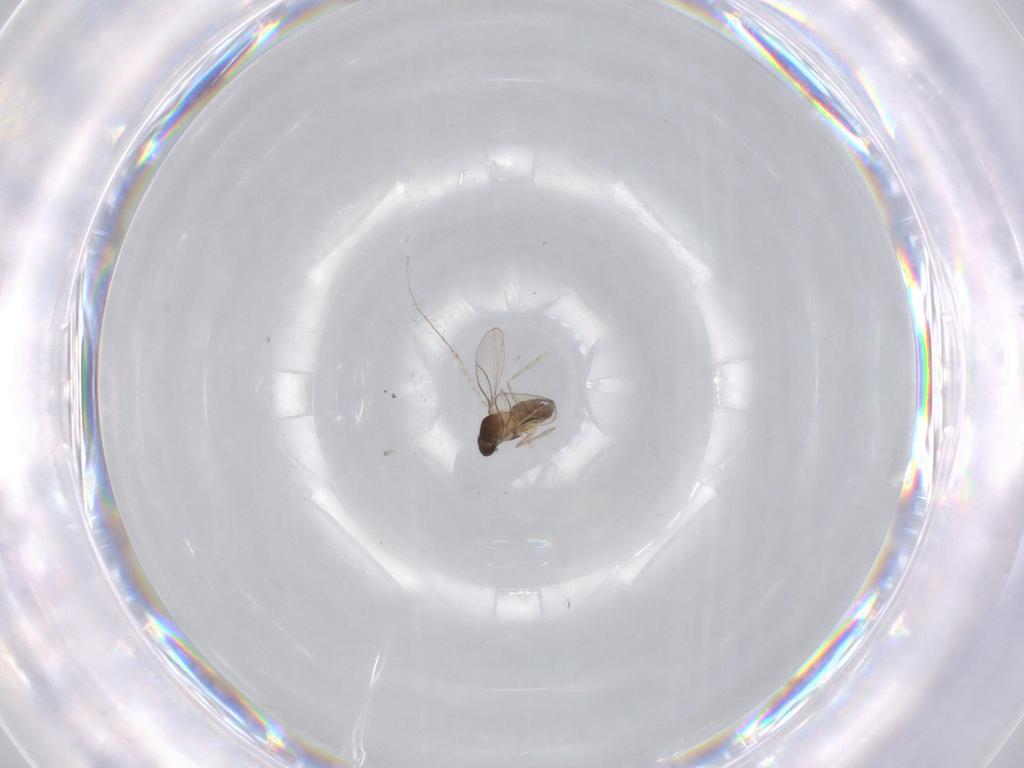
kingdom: Animalia
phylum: Arthropoda
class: Insecta
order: Diptera
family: Cecidomyiidae
